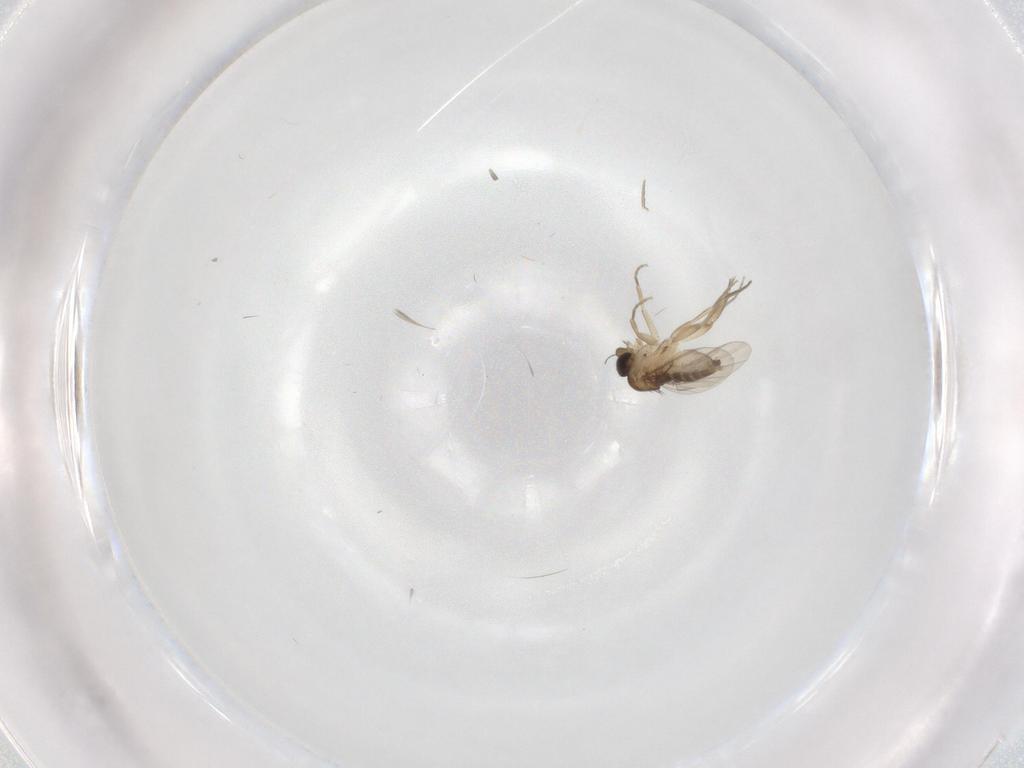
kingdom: Animalia
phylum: Arthropoda
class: Insecta
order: Diptera
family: Phoridae
